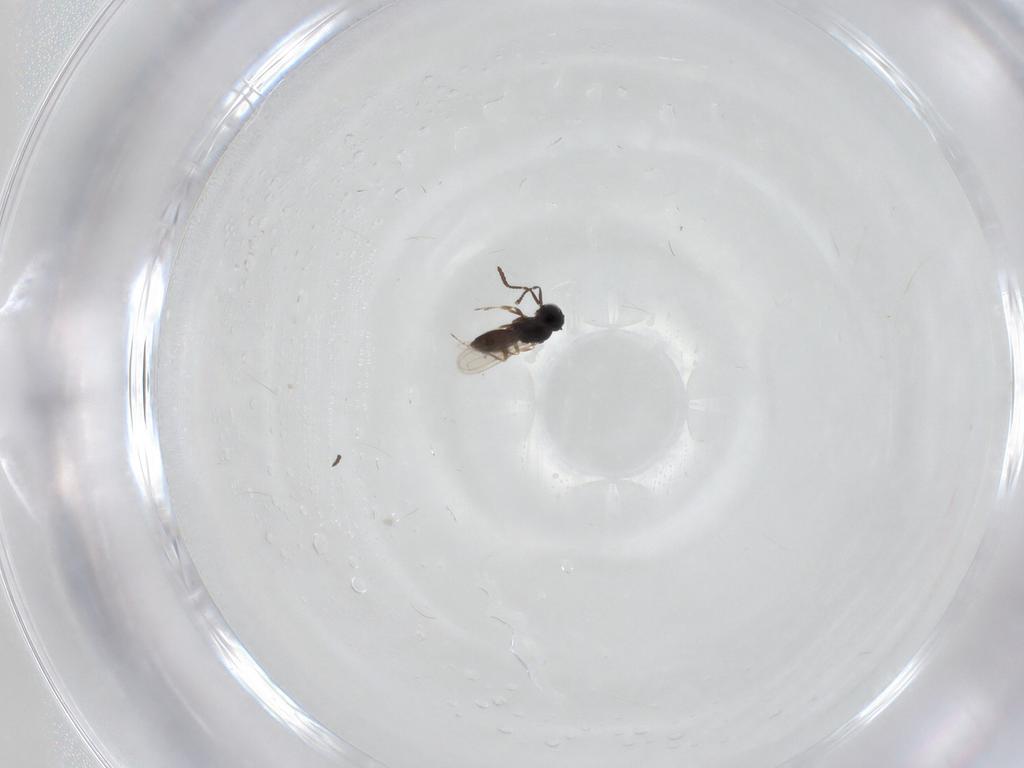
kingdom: Animalia
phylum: Arthropoda
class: Insecta
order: Hymenoptera
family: Scelionidae
